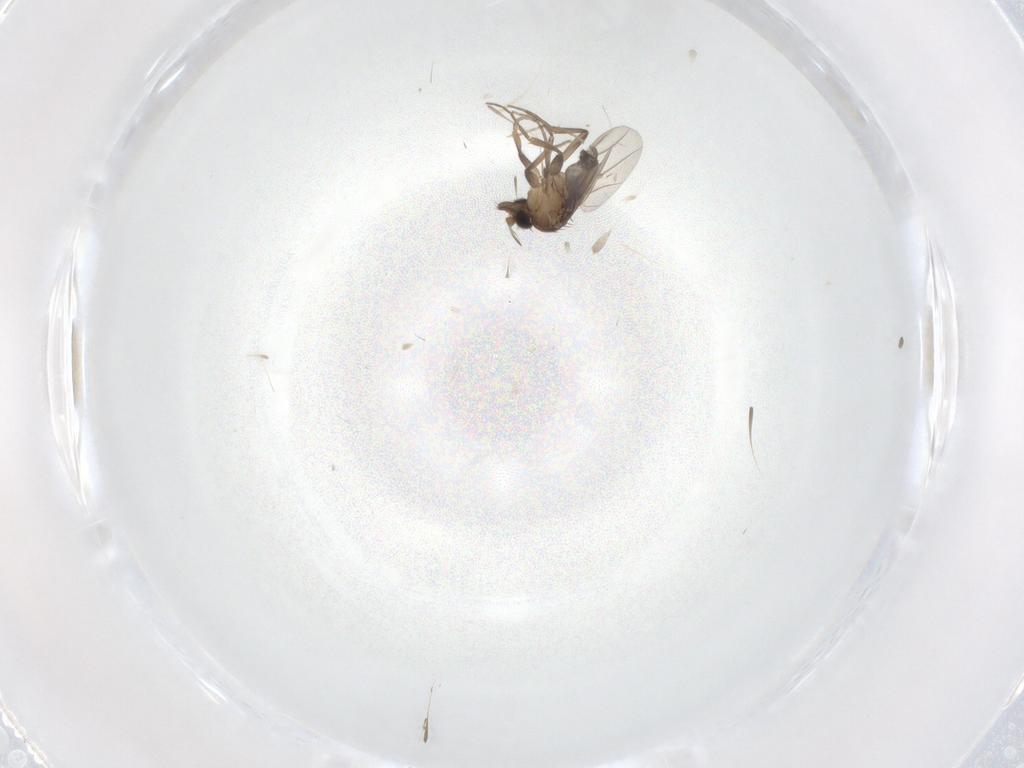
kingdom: Animalia
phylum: Arthropoda
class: Insecta
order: Diptera
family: Phoridae
